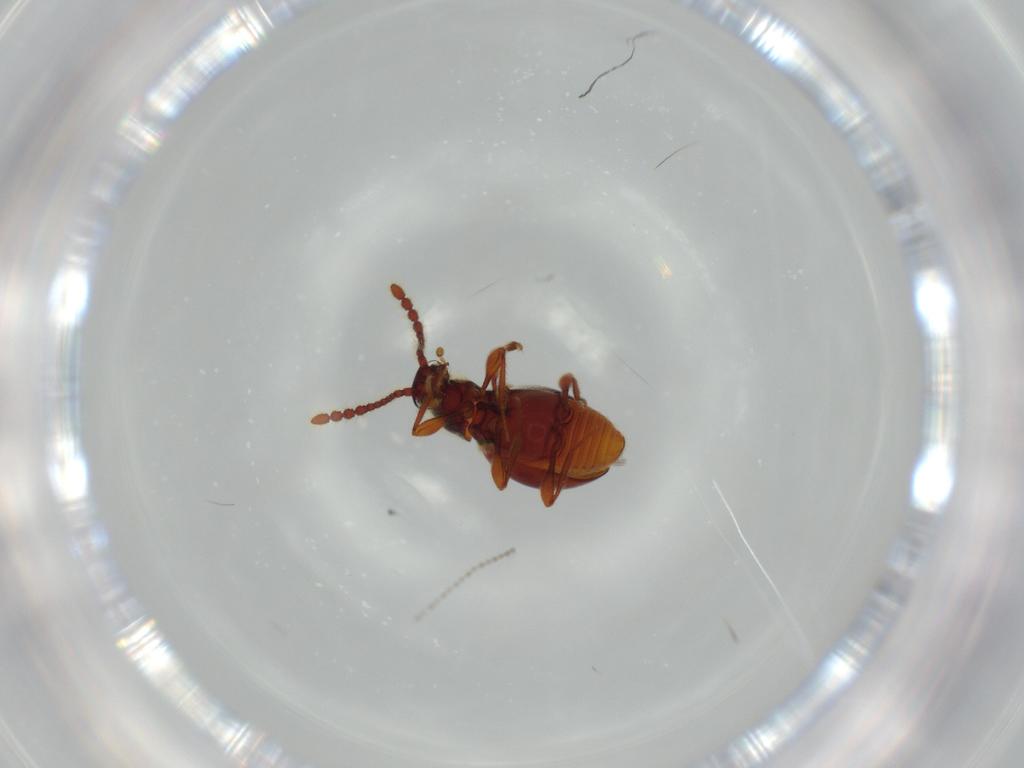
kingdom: Animalia
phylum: Arthropoda
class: Insecta
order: Coleoptera
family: Staphylinidae
